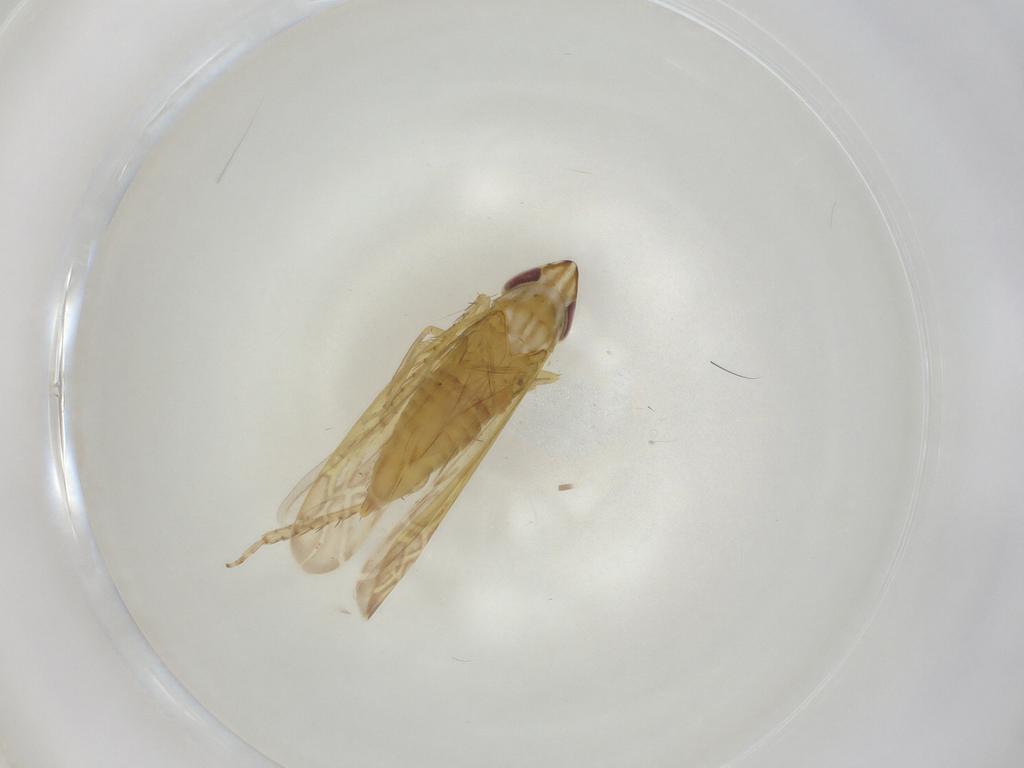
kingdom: Animalia
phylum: Arthropoda
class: Insecta
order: Hemiptera
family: Cicadellidae
